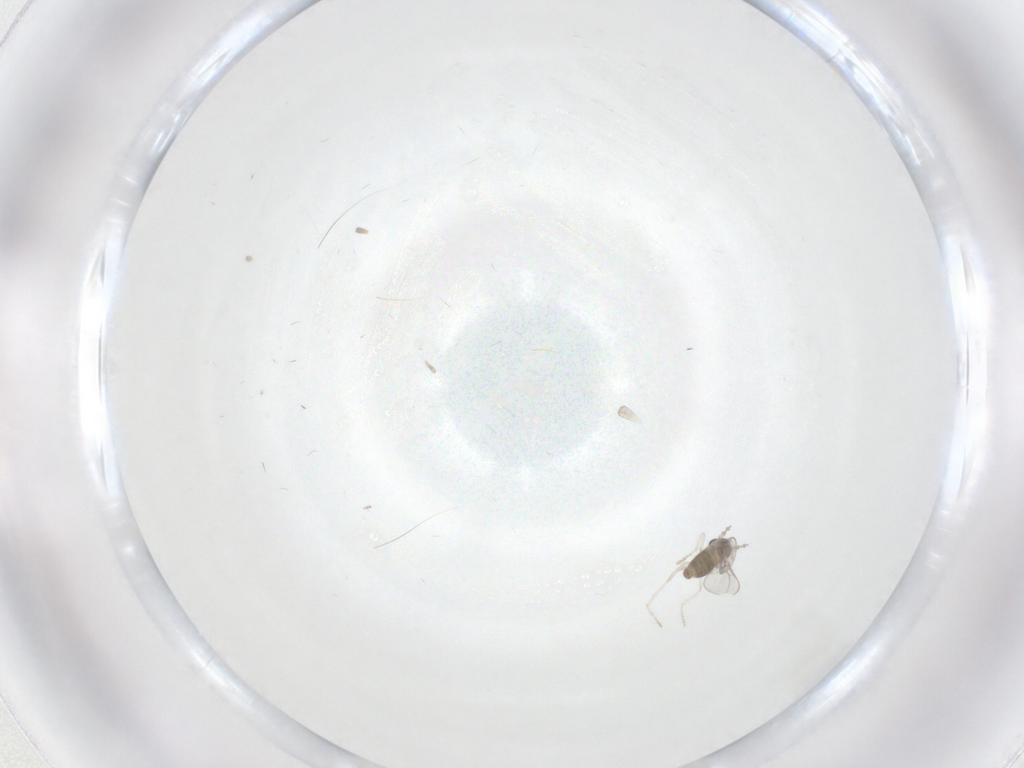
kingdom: Animalia
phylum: Arthropoda
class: Insecta
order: Diptera
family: Cecidomyiidae
